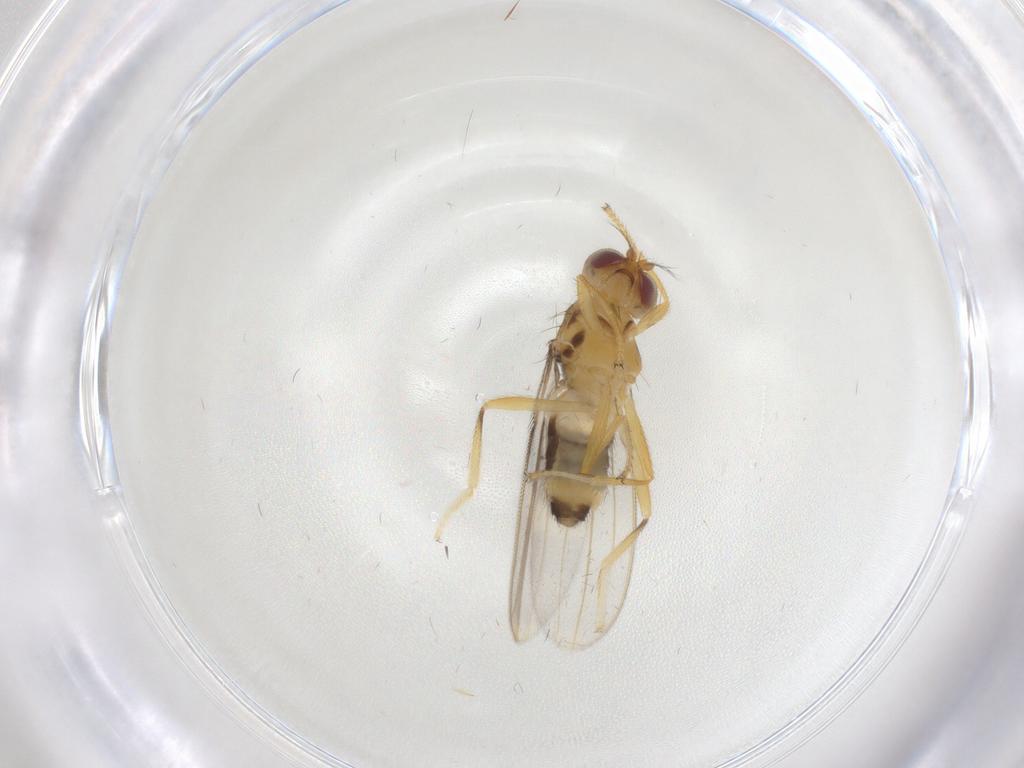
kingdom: Animalia
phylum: Arthropoda
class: Insecta
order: Diptera
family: Periscelididae
